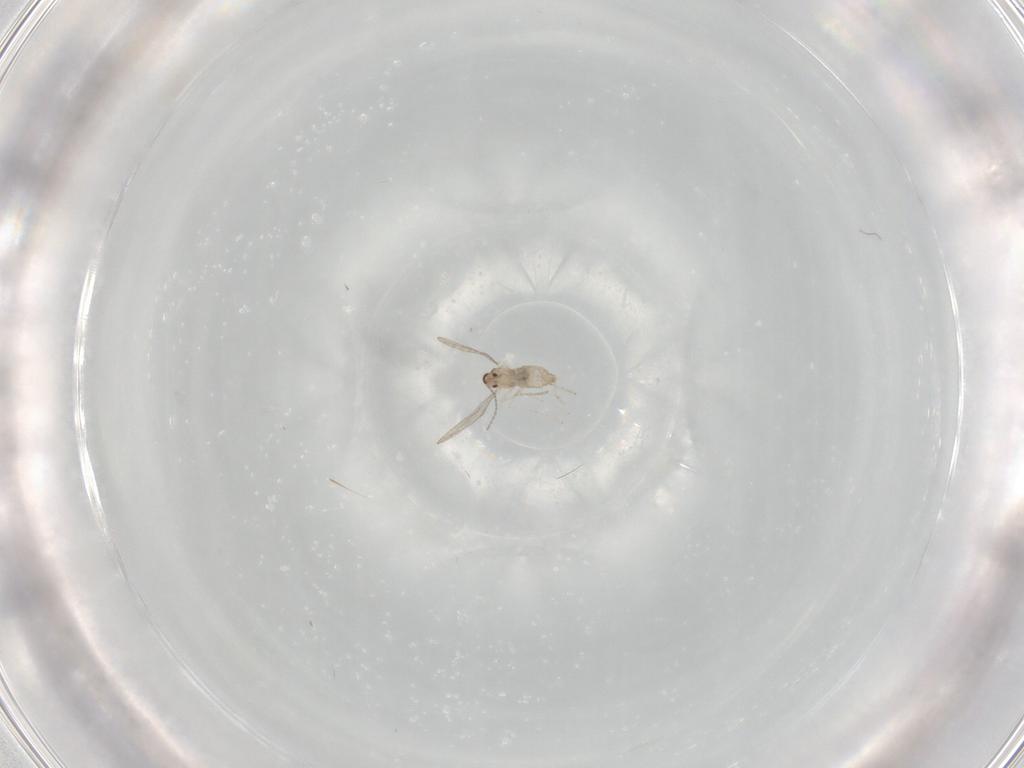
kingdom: Animalia
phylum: Arthropoda
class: Insecta
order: Diptera
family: Cecidomyiidae
